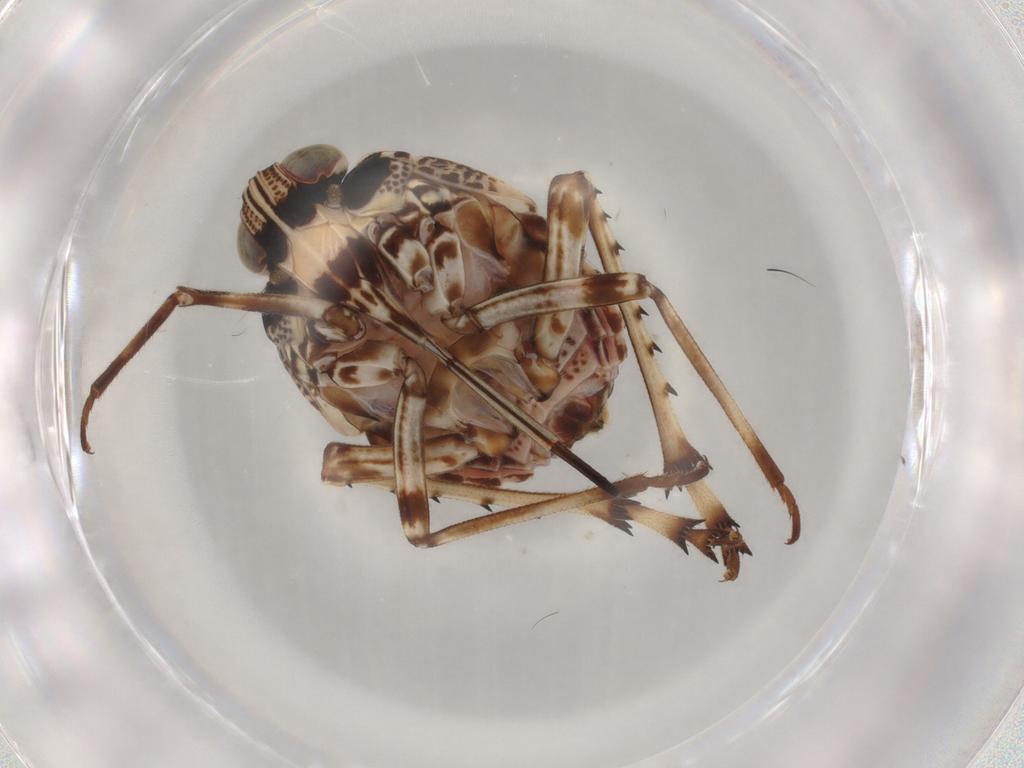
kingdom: Animalia
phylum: Arthropoda
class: Insecta
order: Hemiptera
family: Dictyopharidae
